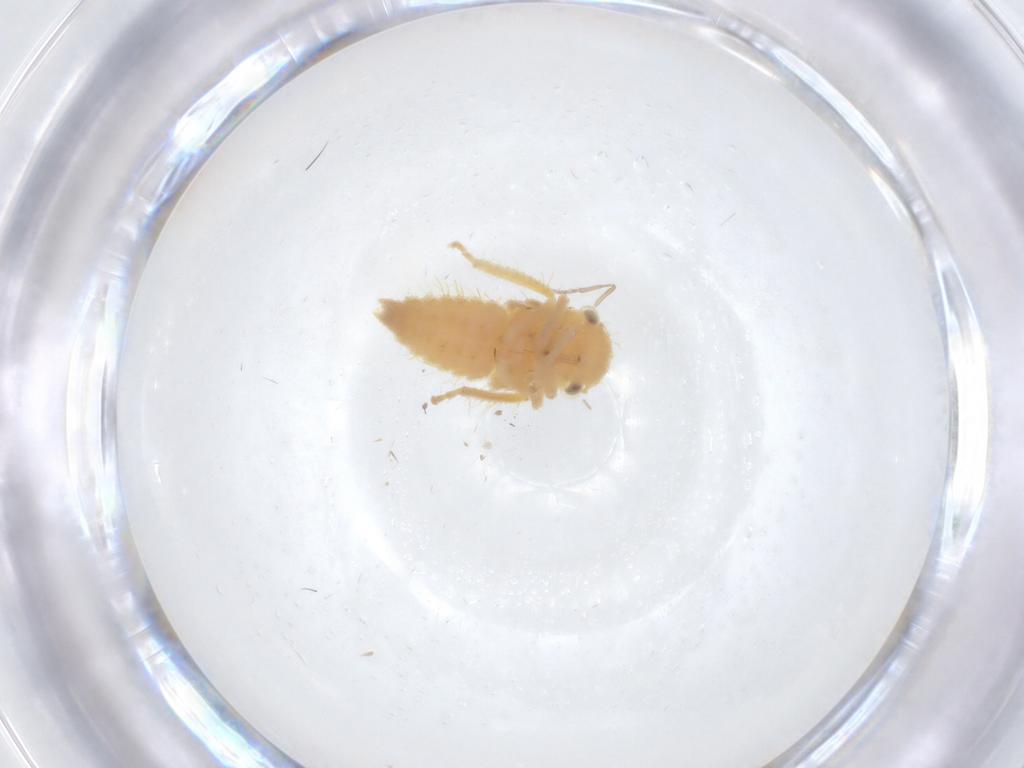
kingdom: Animalia
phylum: Arthropoda
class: Insecta
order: Hemiptera
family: Cicadellidae
